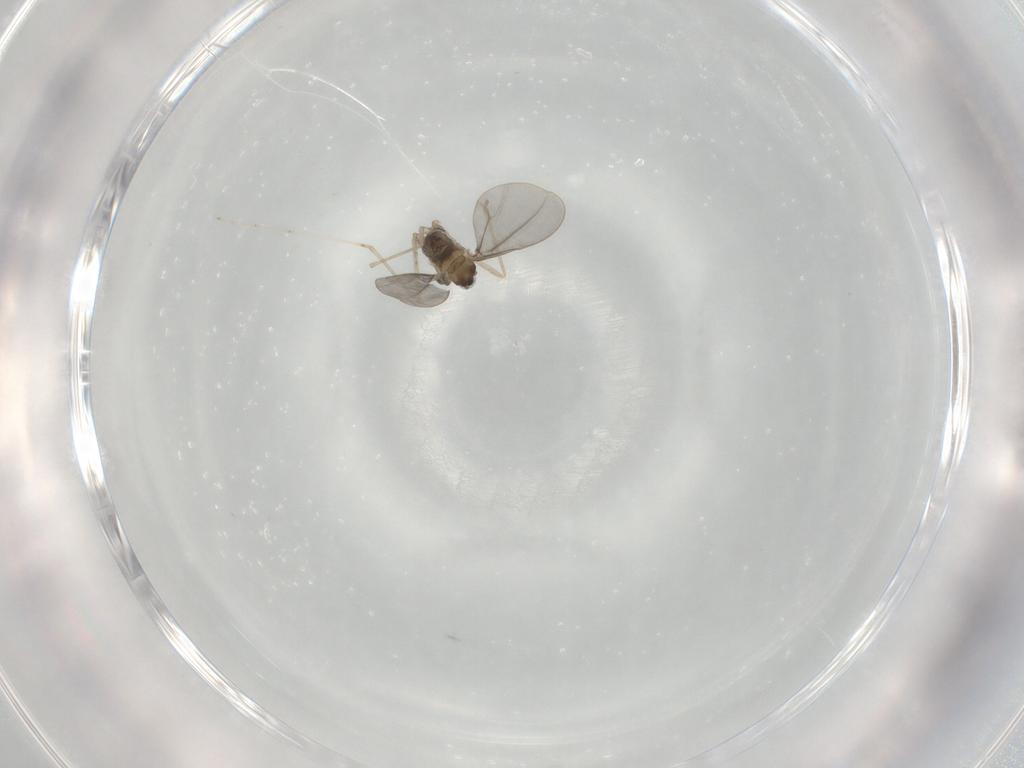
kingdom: Animalia
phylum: Arthropoda
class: Insecta
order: Diptera
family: Cecidomyiidae
